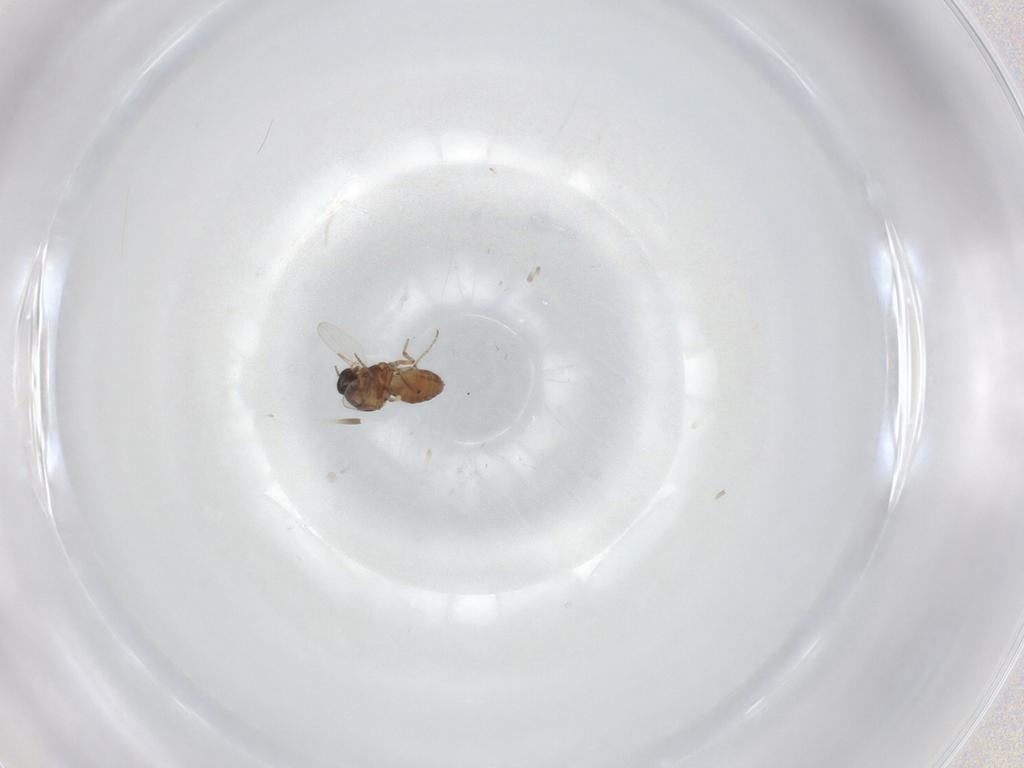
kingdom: Animalia
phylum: Arthropoda
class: Insecta
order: Diptera
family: Ceratopogonidae
